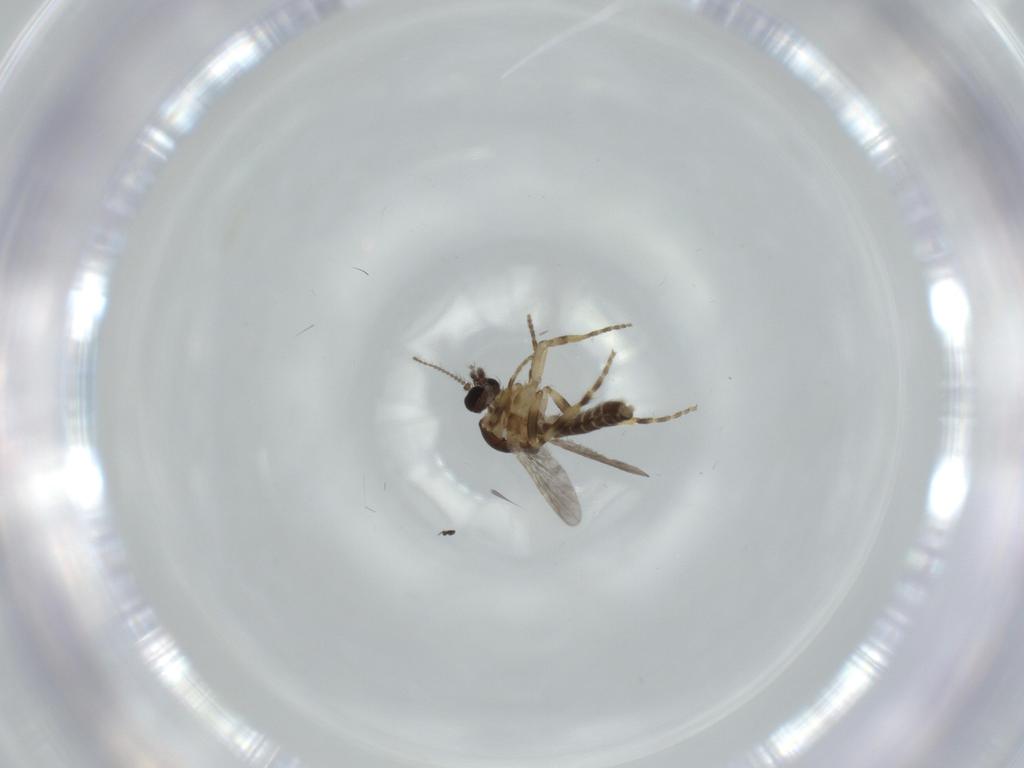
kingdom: Animalia
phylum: Arthropoda
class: Insecta
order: Diptera
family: Ceratopogonidae
